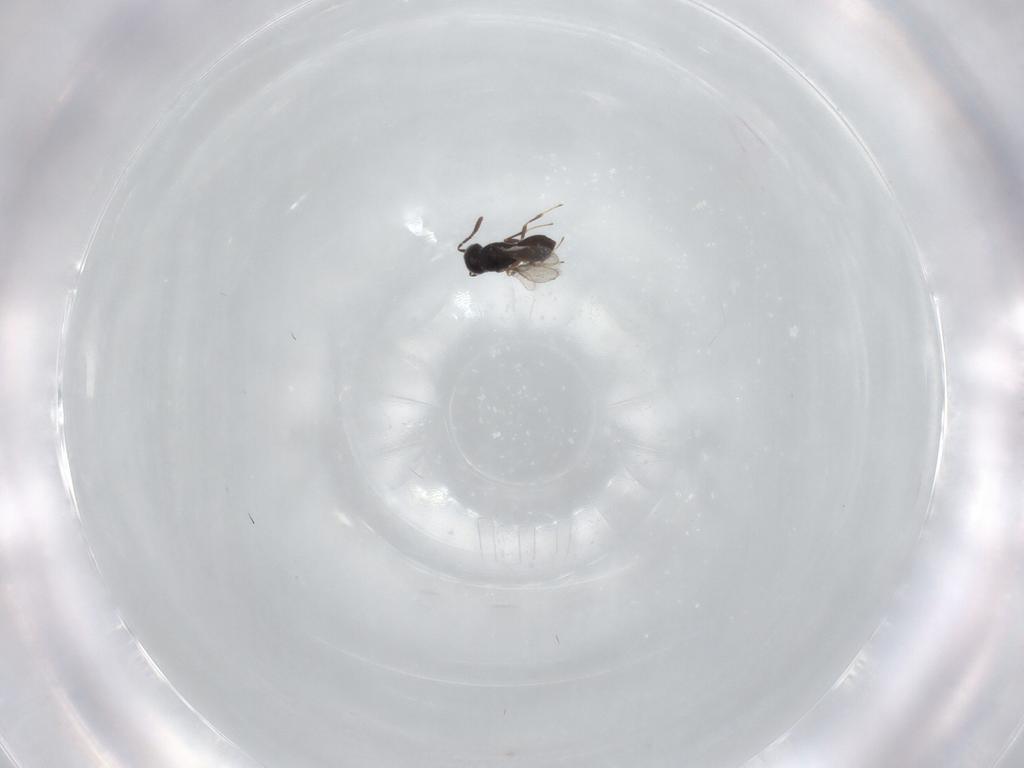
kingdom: Animalia
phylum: Arthropoda
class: Insecta
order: Hymenoptera
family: Scelionidae
